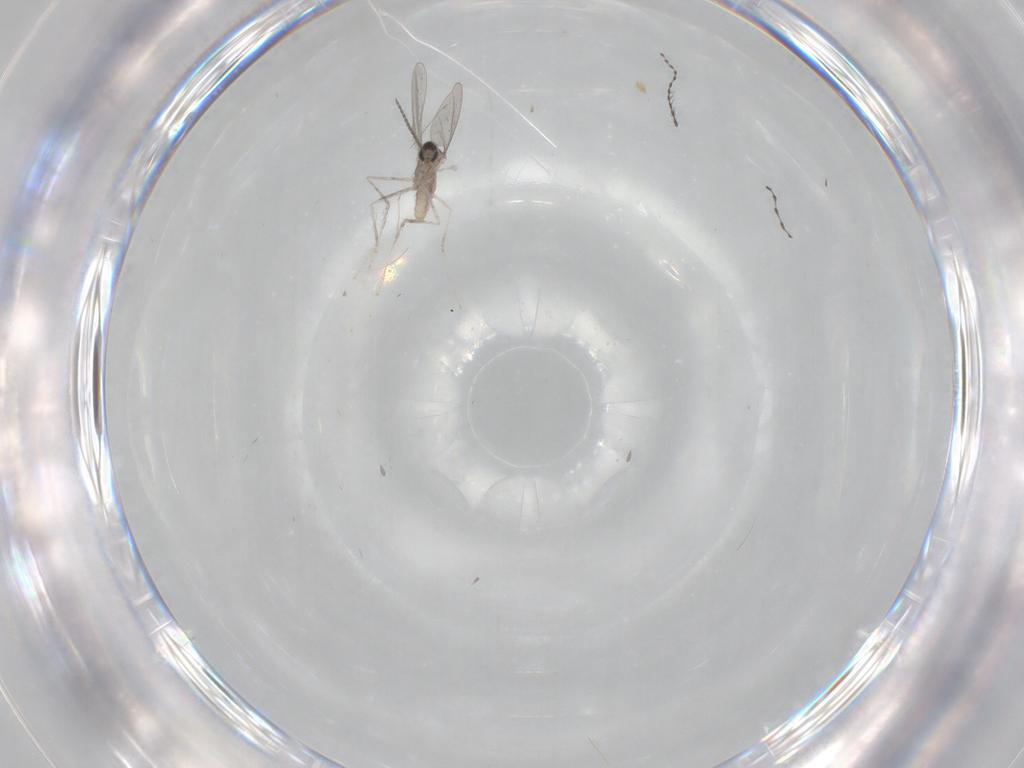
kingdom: Animalia
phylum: Arthropoda
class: Insecta
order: Diptera
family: Cecidomyiidae
